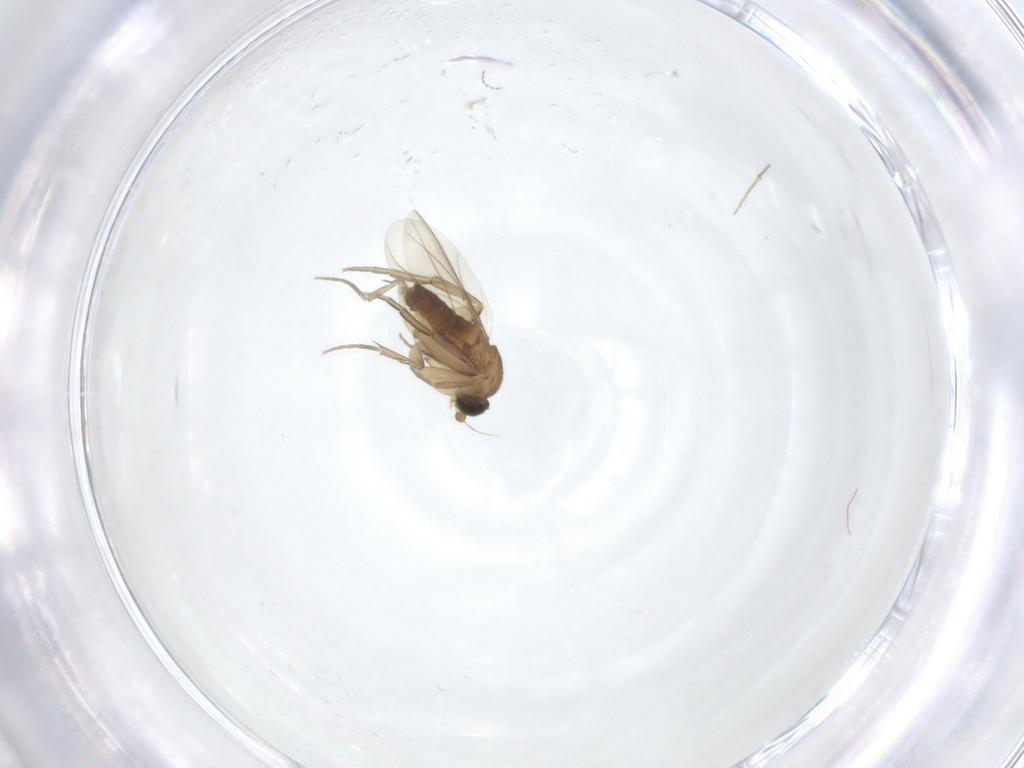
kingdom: Animalia
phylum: Arthropoda
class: Insecta
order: Diptera
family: Phoridae
